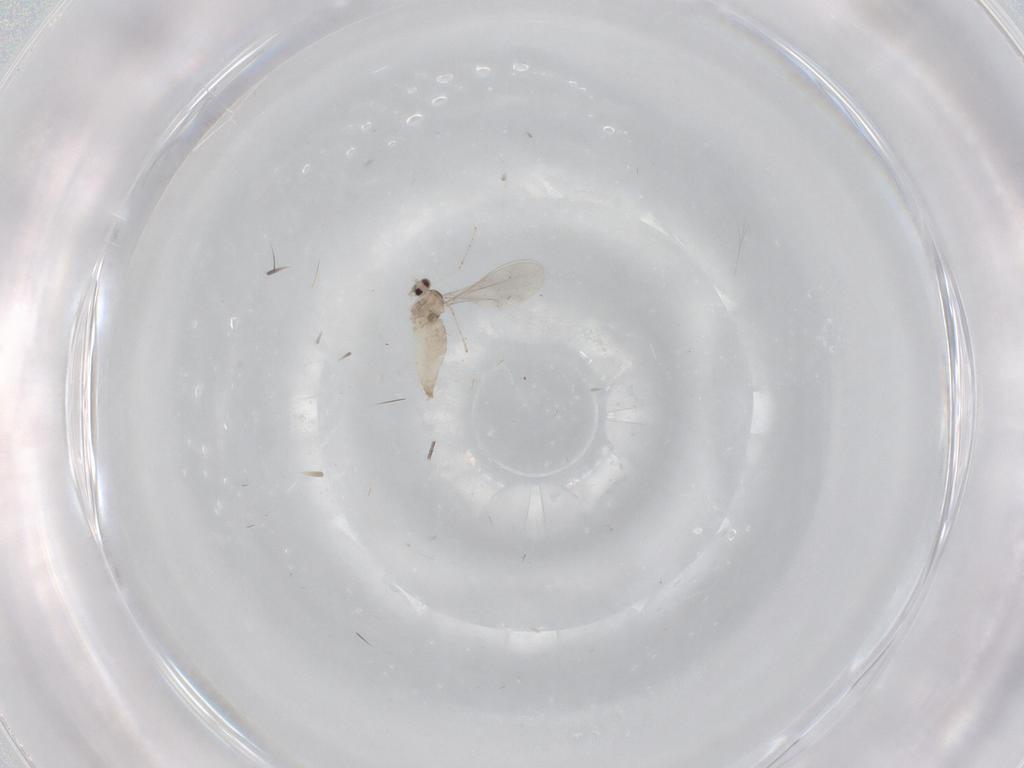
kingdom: Animalia
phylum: Arthropoda
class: Insecta
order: Diptera
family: Cecidomyiidae
